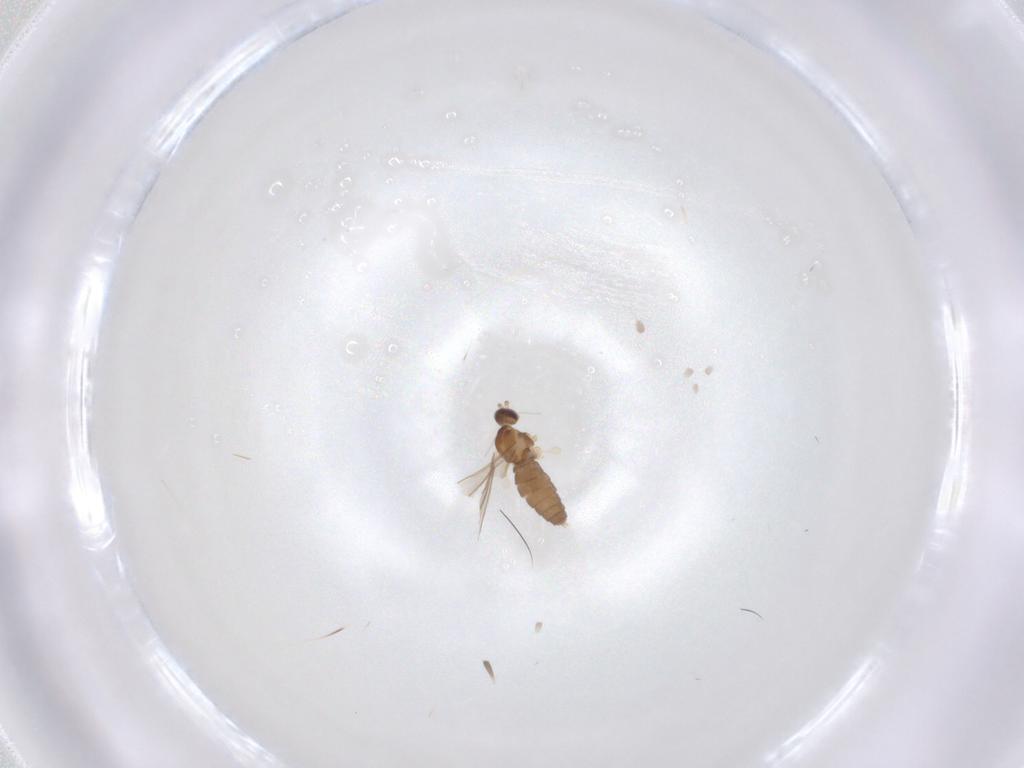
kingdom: Animalia
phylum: Arthropoda
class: Insecta
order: Diptera
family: Cecidomyiidae
